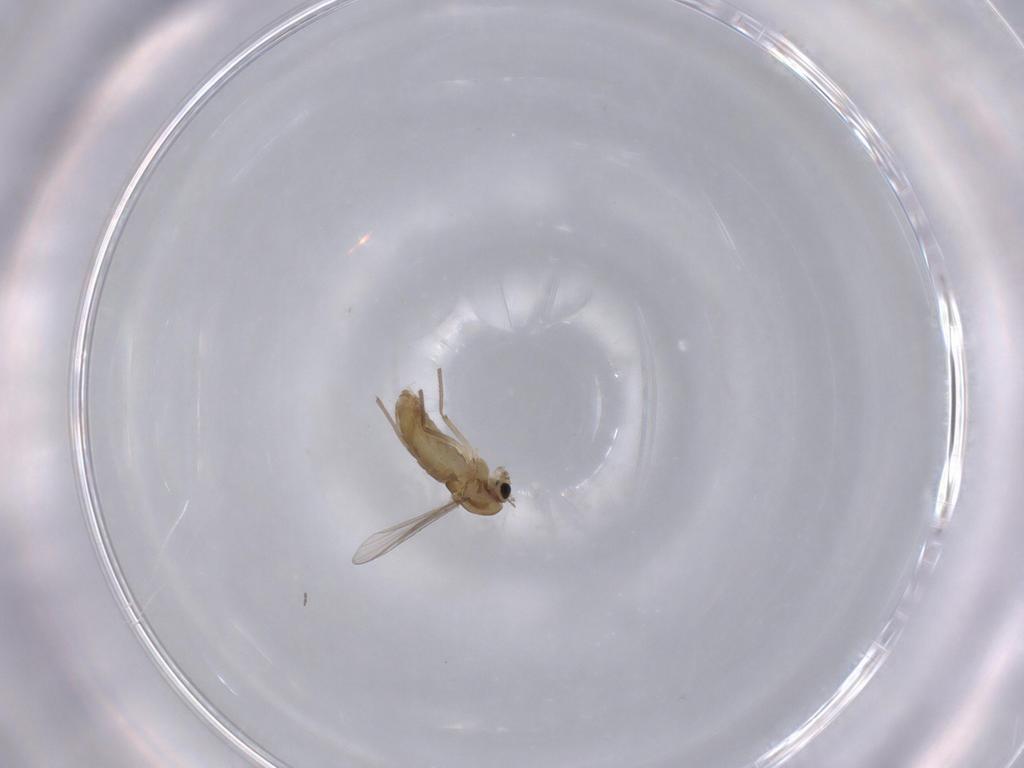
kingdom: Animalia
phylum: Arthropoda
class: Insecta
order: Diptera
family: Chironomidae
